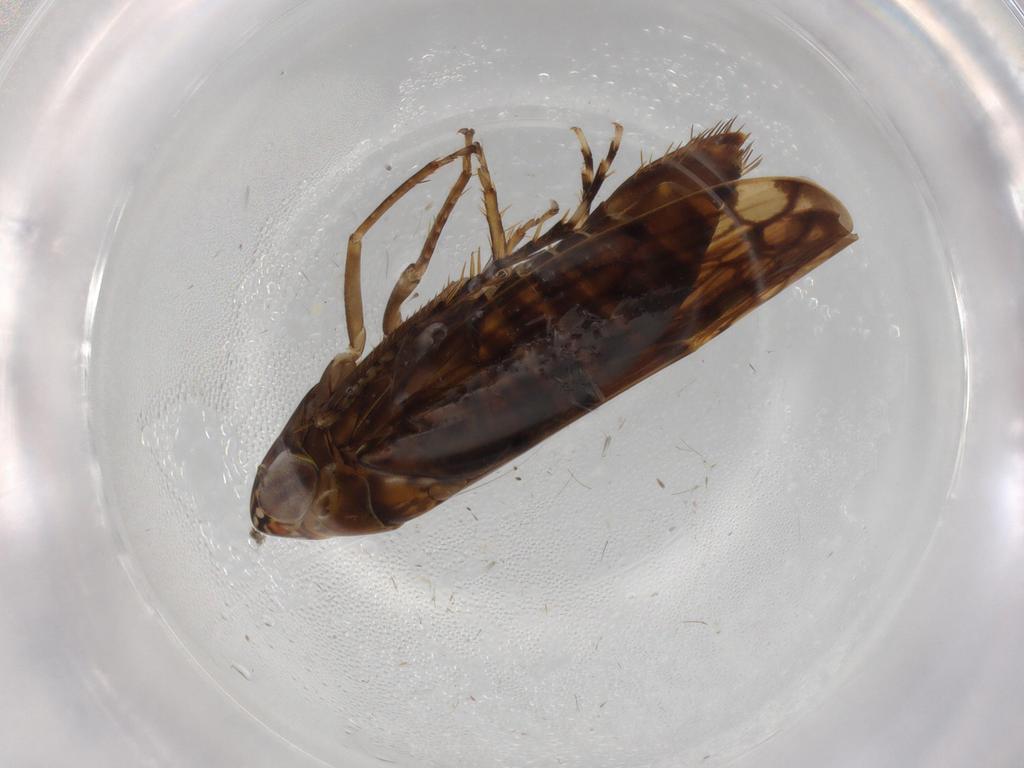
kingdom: Animalia
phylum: Arthropoda
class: Insecta
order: Hemiptera
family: Cicadellidae
